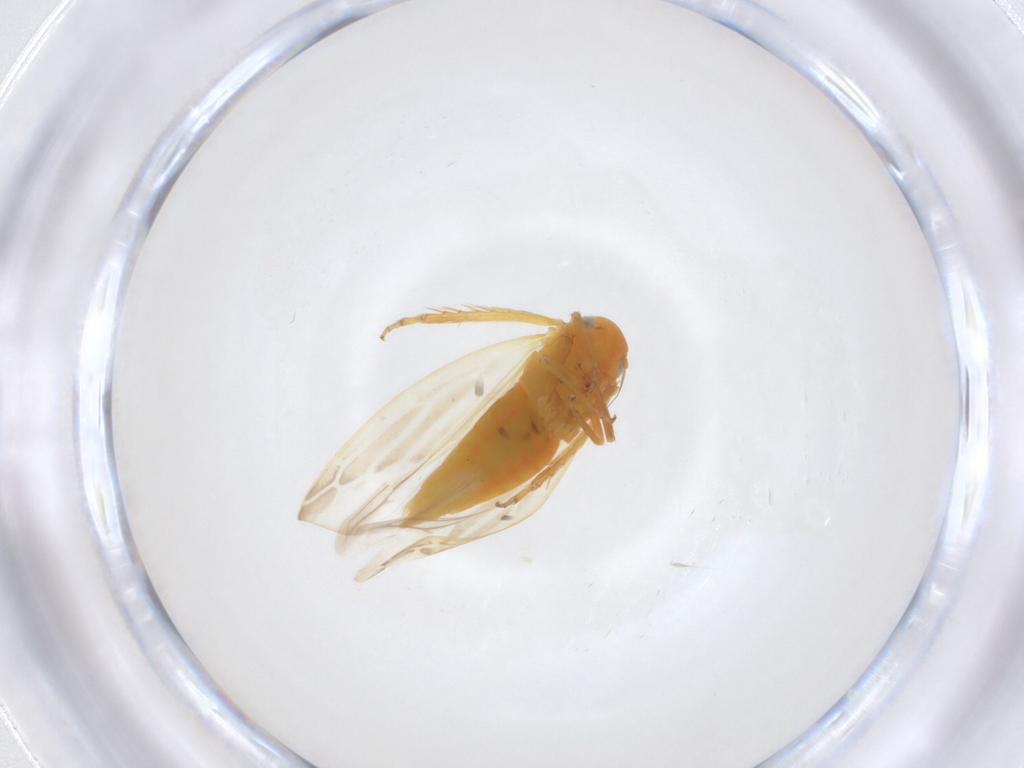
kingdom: Animalia
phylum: Arthropoda
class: Insecta
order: Hemiptera
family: Cicadellidae
